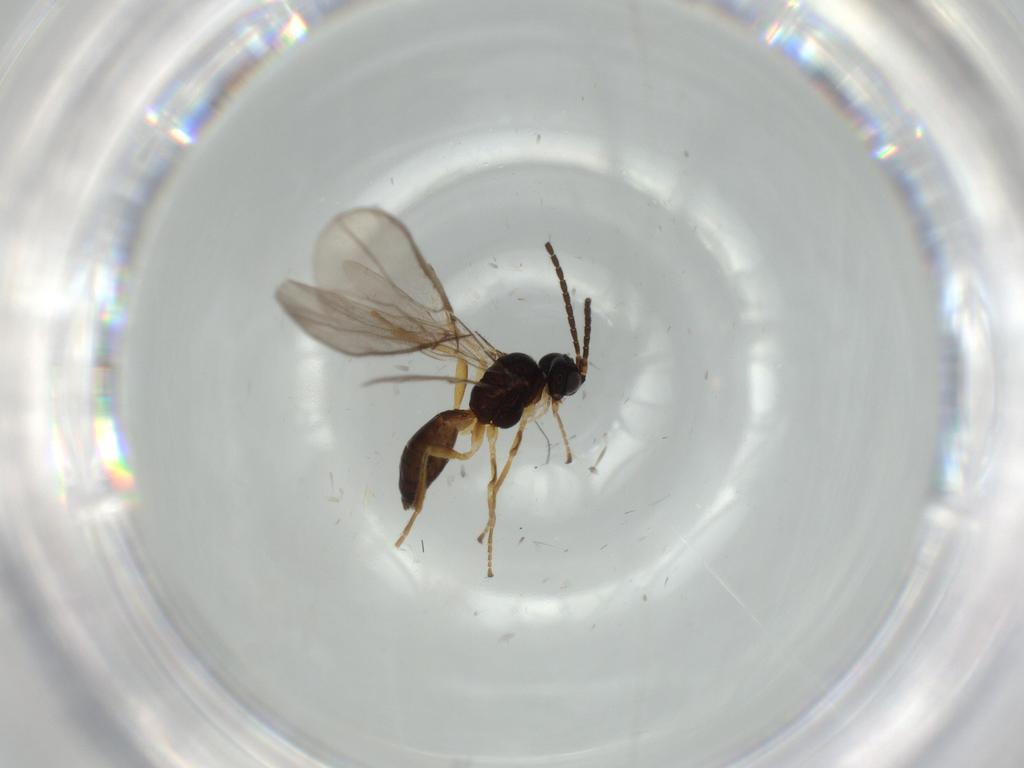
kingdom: Animalia
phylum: Arthropoda
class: Insecta
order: Hymenoptera
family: Braconidae
